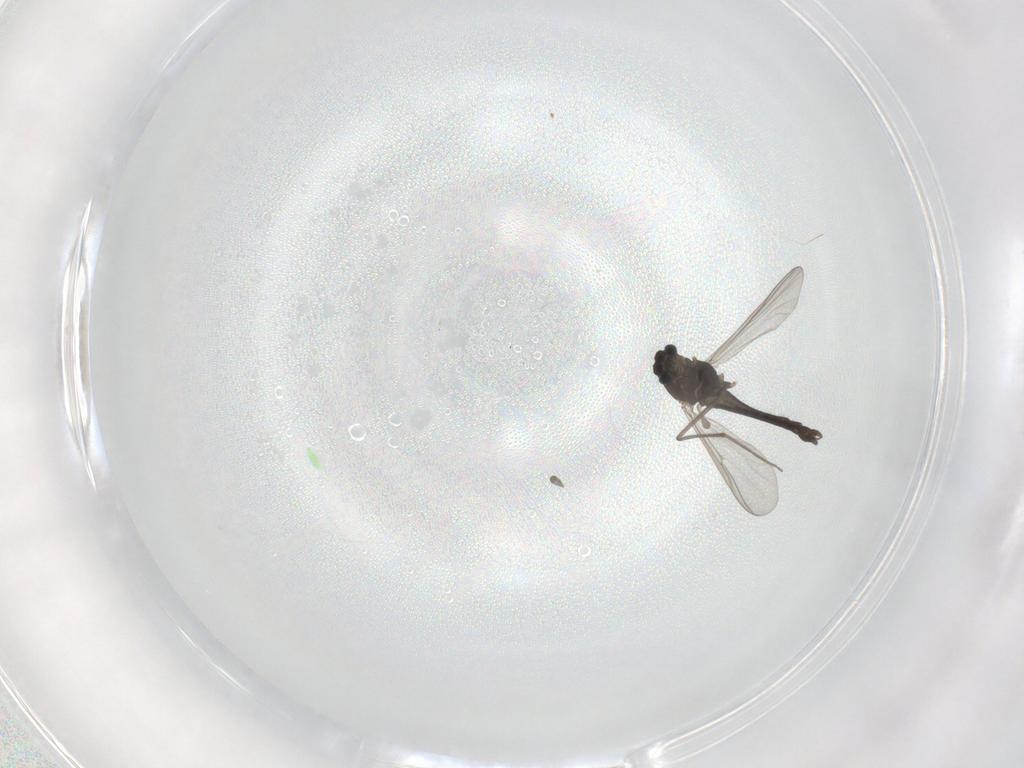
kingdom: Animalia
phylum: Arthropoda
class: Insecta
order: Diptera
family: Chironomidae
